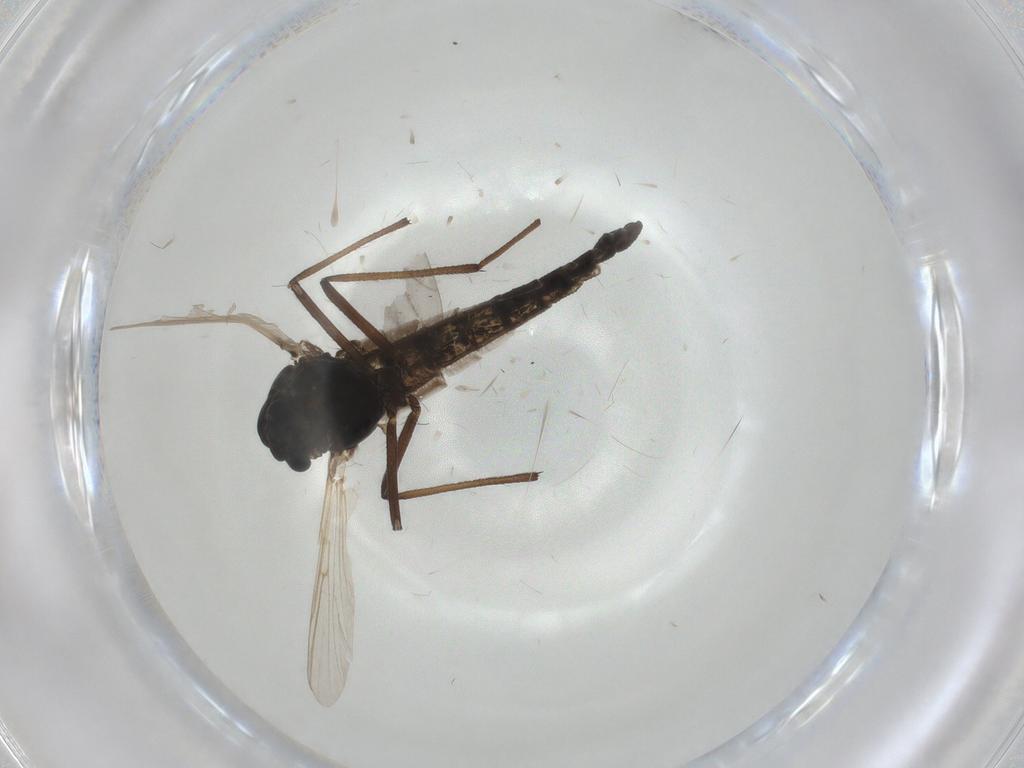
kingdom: Animalia
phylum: Arthropoda
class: Insecta
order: Diptera
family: Chironomidae
